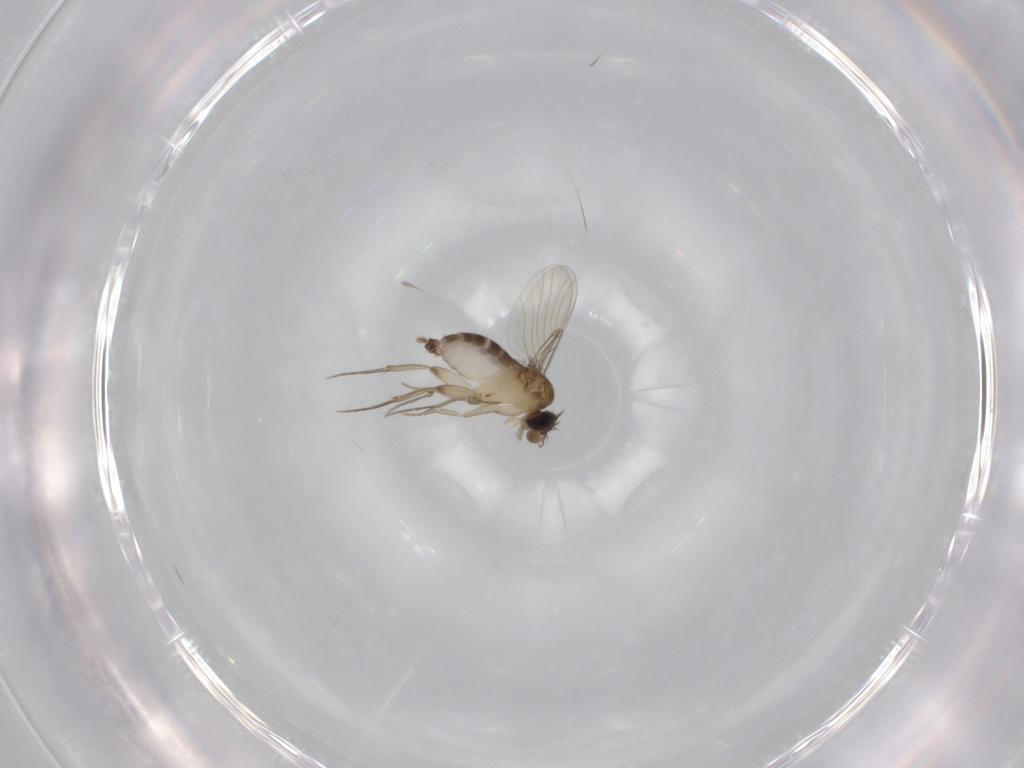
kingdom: Animalia
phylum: Arthropoda
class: Insecta
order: Diptera
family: Phoridae
